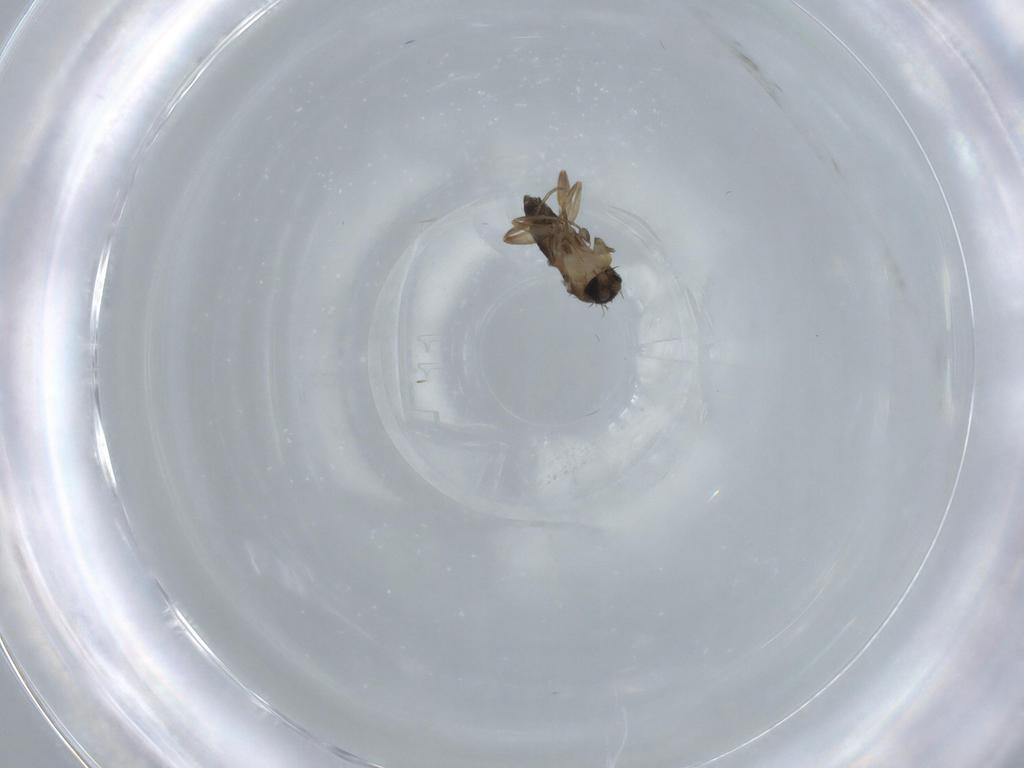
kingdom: Animalia
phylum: Arthropoda
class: Insecta
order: Diptera
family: Phoridae
